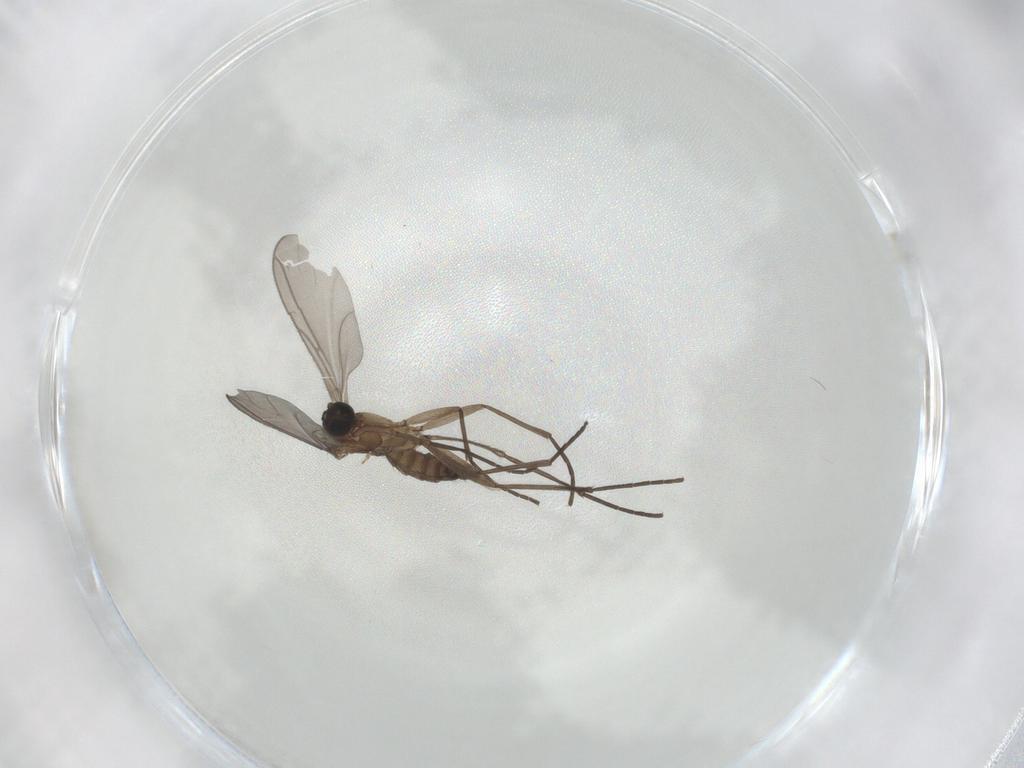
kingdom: Animalia
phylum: Arthropoda
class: Insecta
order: Diptera
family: Chironomidae
